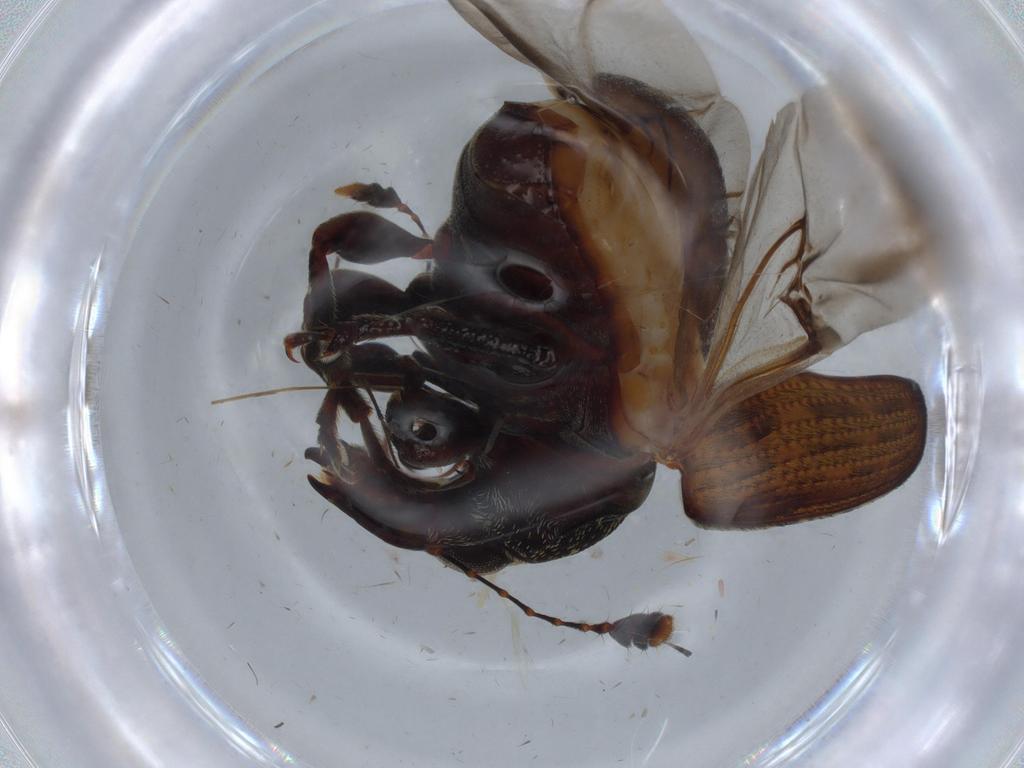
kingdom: Animalia
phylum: Arthropoda
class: Insecta
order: Coleoptera
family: Anthribidae
